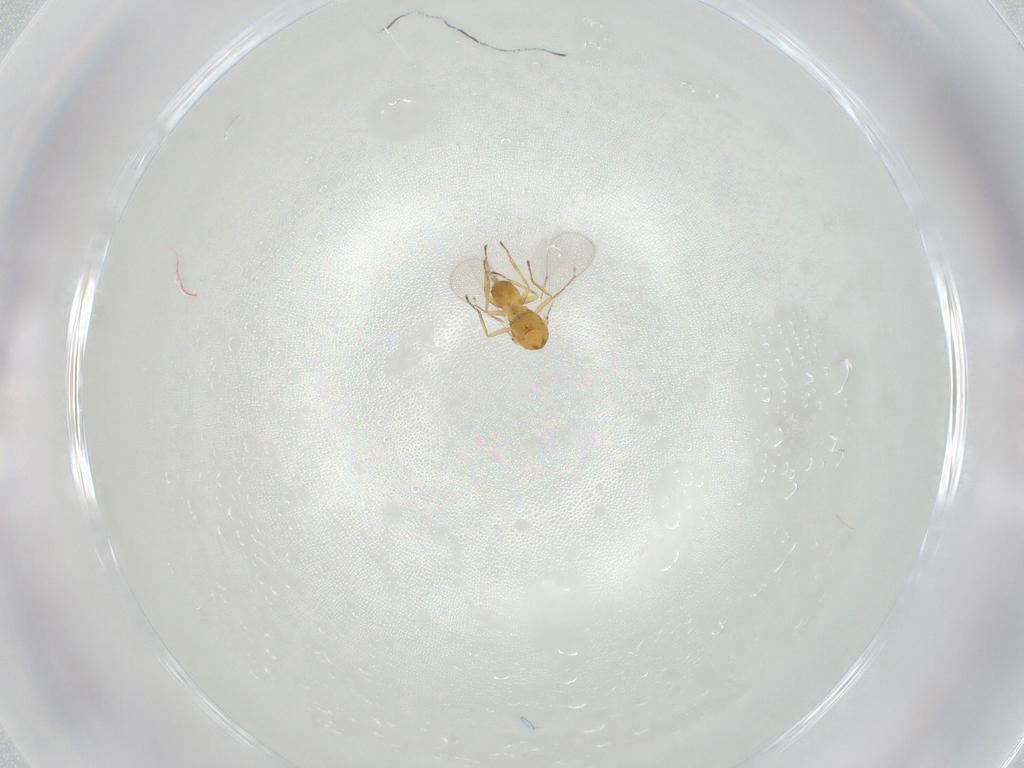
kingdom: Animalia
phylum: Arthropoda
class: Insecta
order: Hymenoptera
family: Eulophidae
